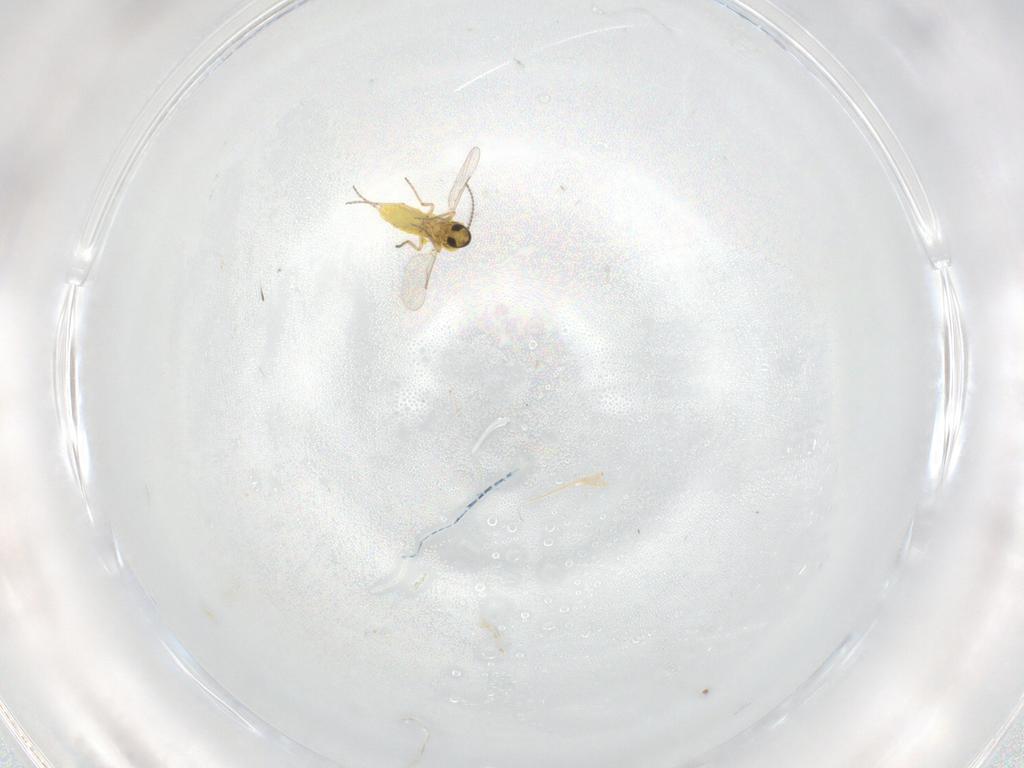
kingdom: Animalia
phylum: Arthropoda
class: Insecta
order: Diptera
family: Ceratopogonidae
